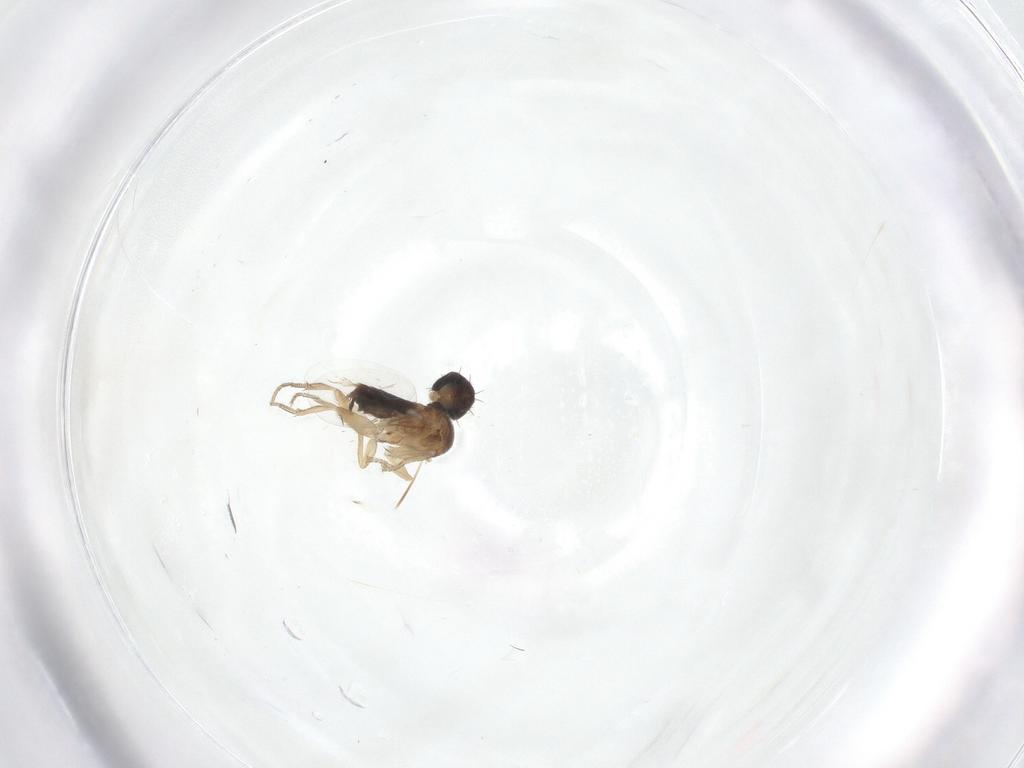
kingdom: Animalia
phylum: Arthropoda
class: Insecta
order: Diptera
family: Phoridae
